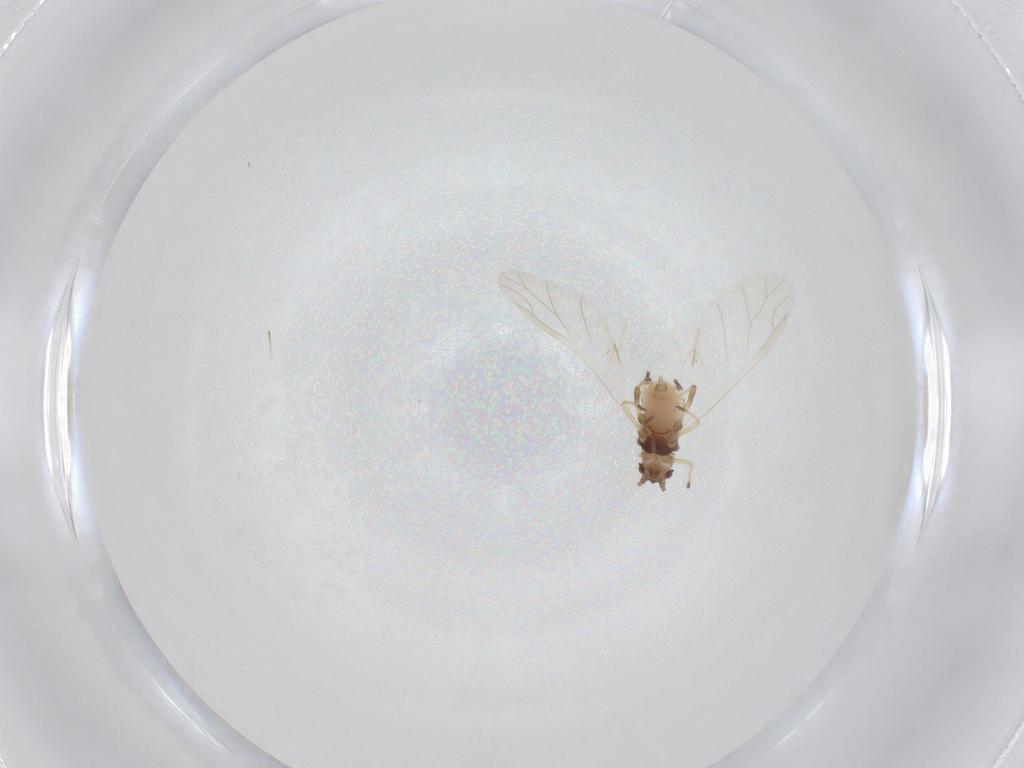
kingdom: Animalia
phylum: Arthropoda
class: Insecta
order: Hemiptera
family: Aphididae
